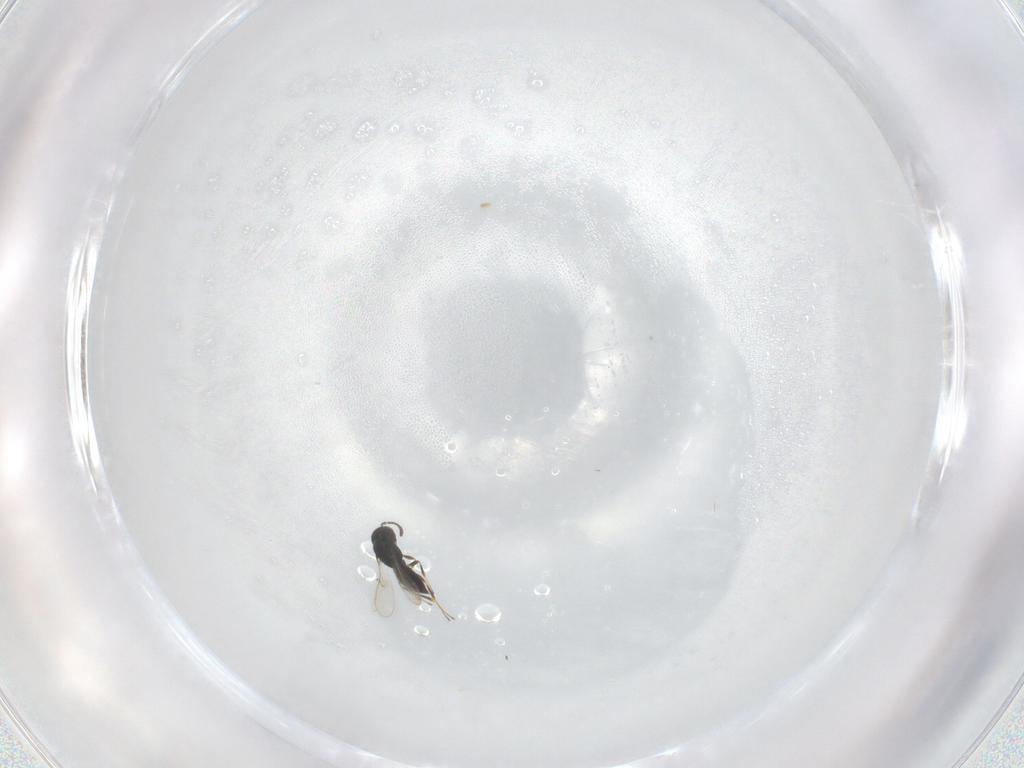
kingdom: Animalia
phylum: Arthropoda
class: Insecta
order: Hymenoptera
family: Scelionidae
